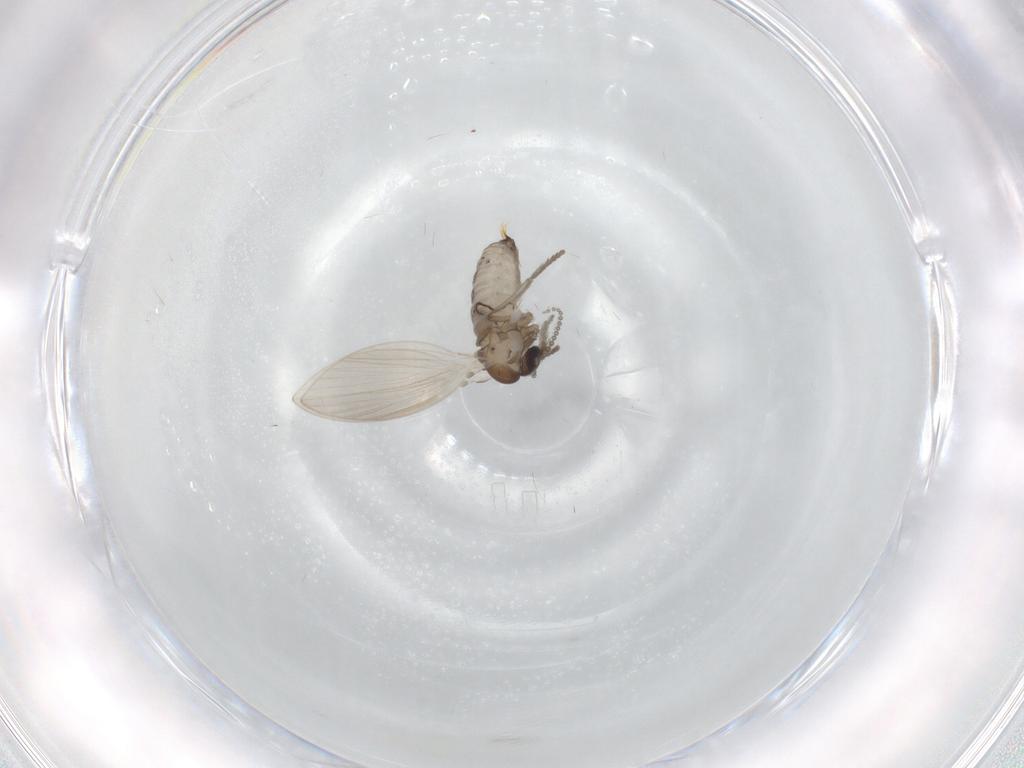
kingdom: Animalia
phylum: Arthropoda
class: Insecta
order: Diptera
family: Psychodidae
